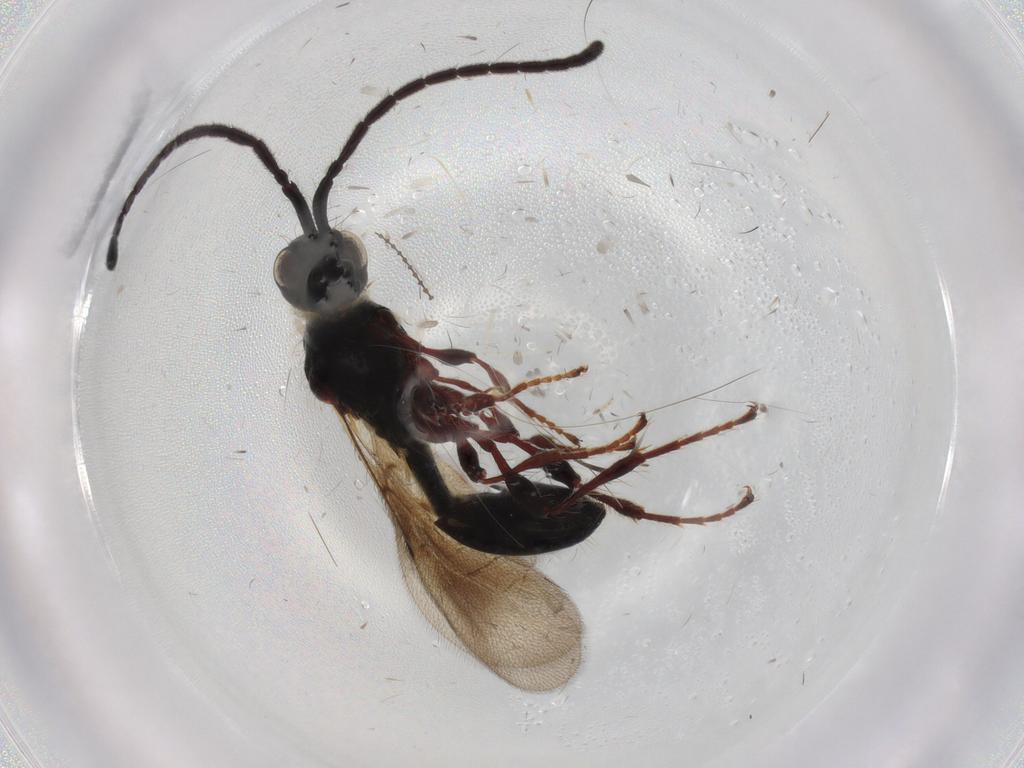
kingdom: Animalia
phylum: Arthropoda
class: Insecta
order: Hymenoptera
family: Diapriidae
